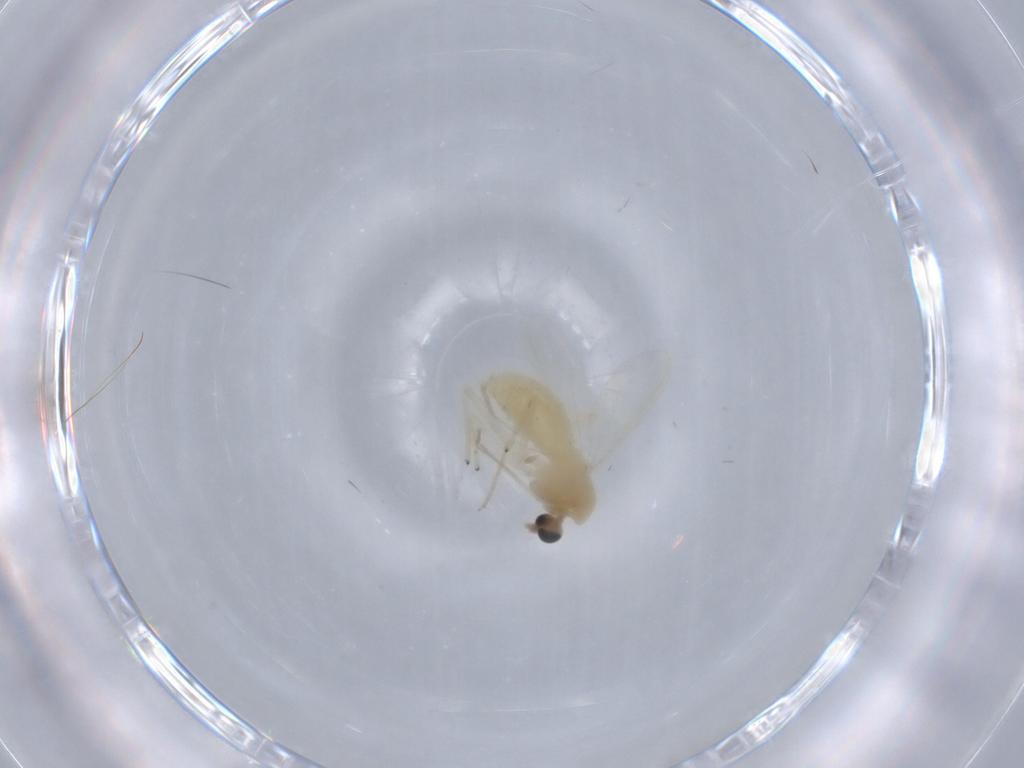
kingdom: Animalia
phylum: Arthropoda
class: Insecta
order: Diptera
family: Chironomidae
